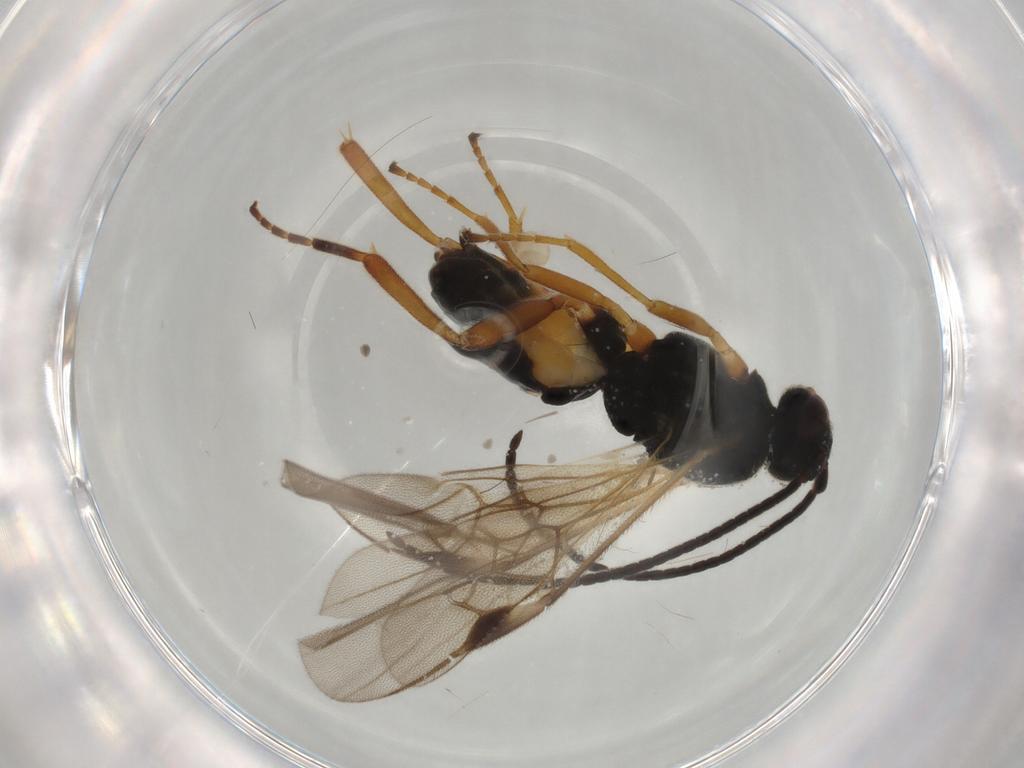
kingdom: Animalia
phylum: Arthropoda
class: Insecta
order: Hymenoptera
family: Braconidae
